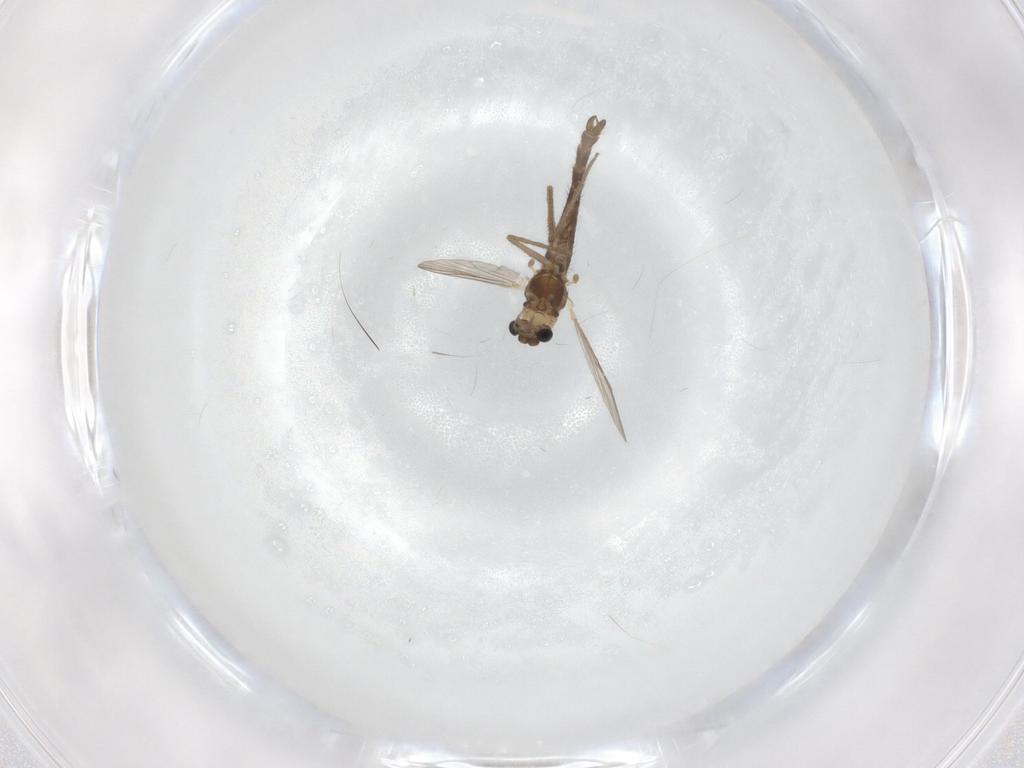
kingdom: Animalia
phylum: Arthropoda
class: Insecta
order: Diptera
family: Chironomidae
